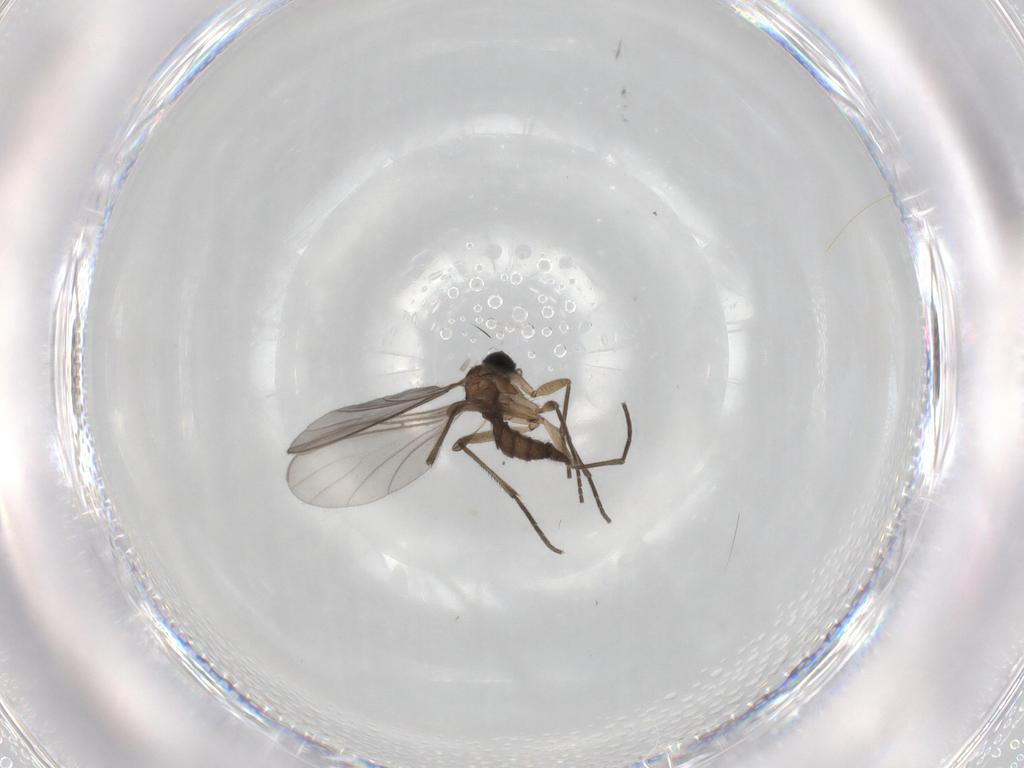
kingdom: Animalia
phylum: Arthropoda
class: Insecta
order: Diptera
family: Sciaridae
